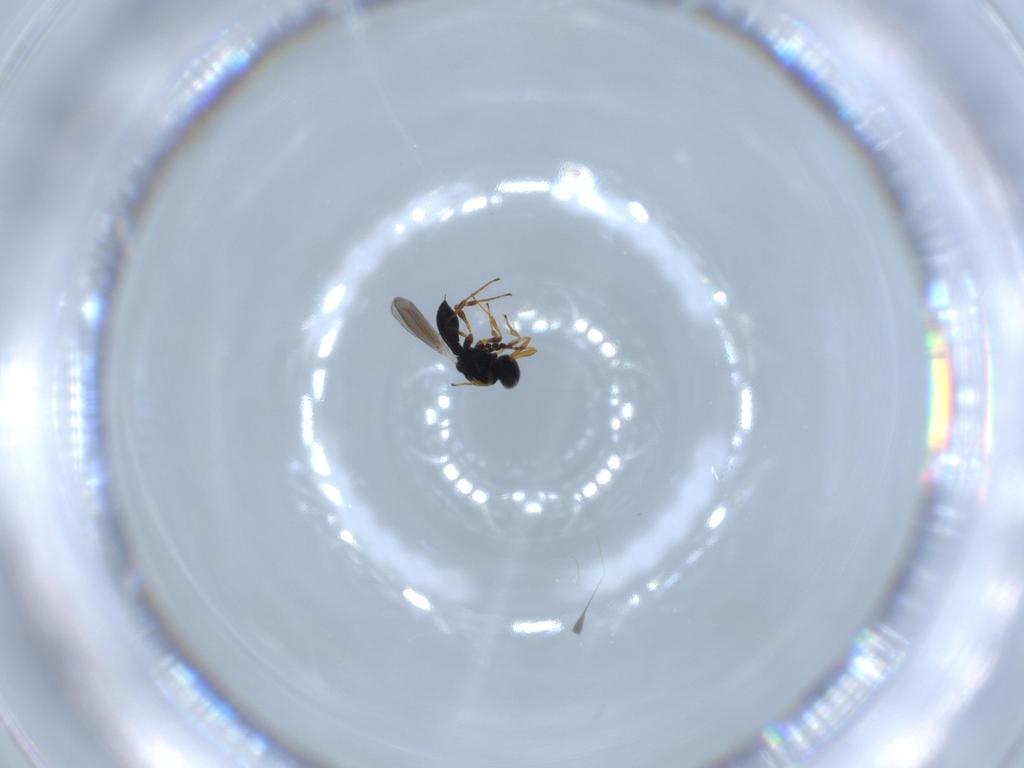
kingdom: Animalia
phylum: Arthropoda
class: Insecta
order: Hymenoptera
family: Platygastridae
